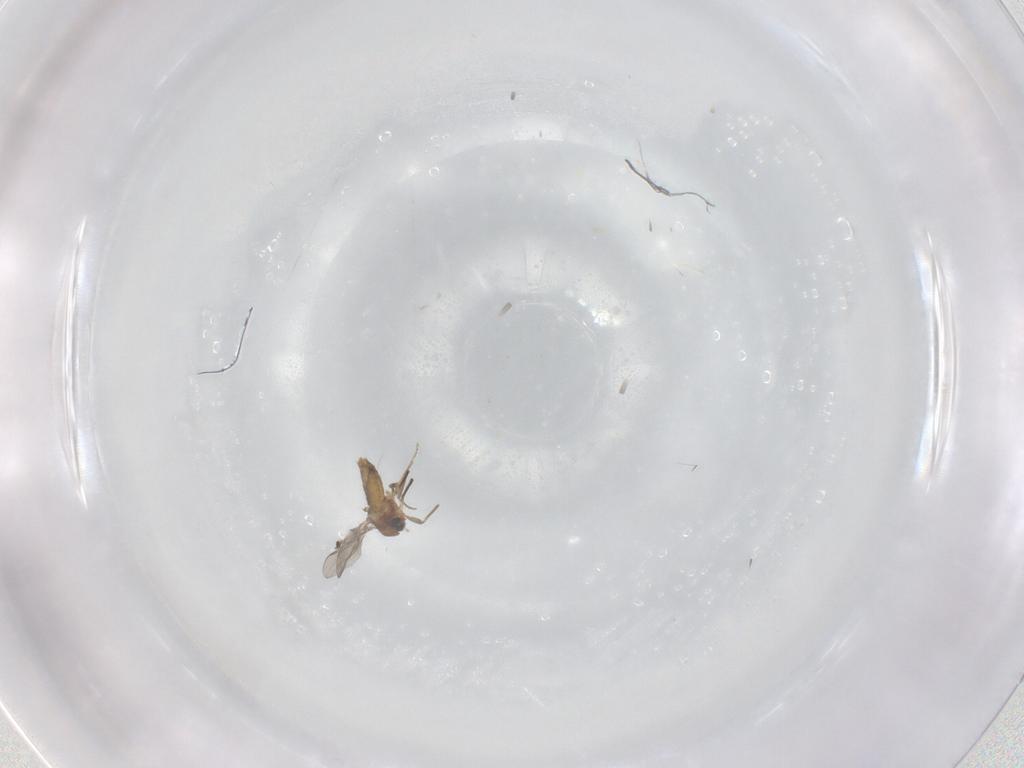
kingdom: Animalia
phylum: Arthropoda
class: Insecta
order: Diptera
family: Chironomidae
